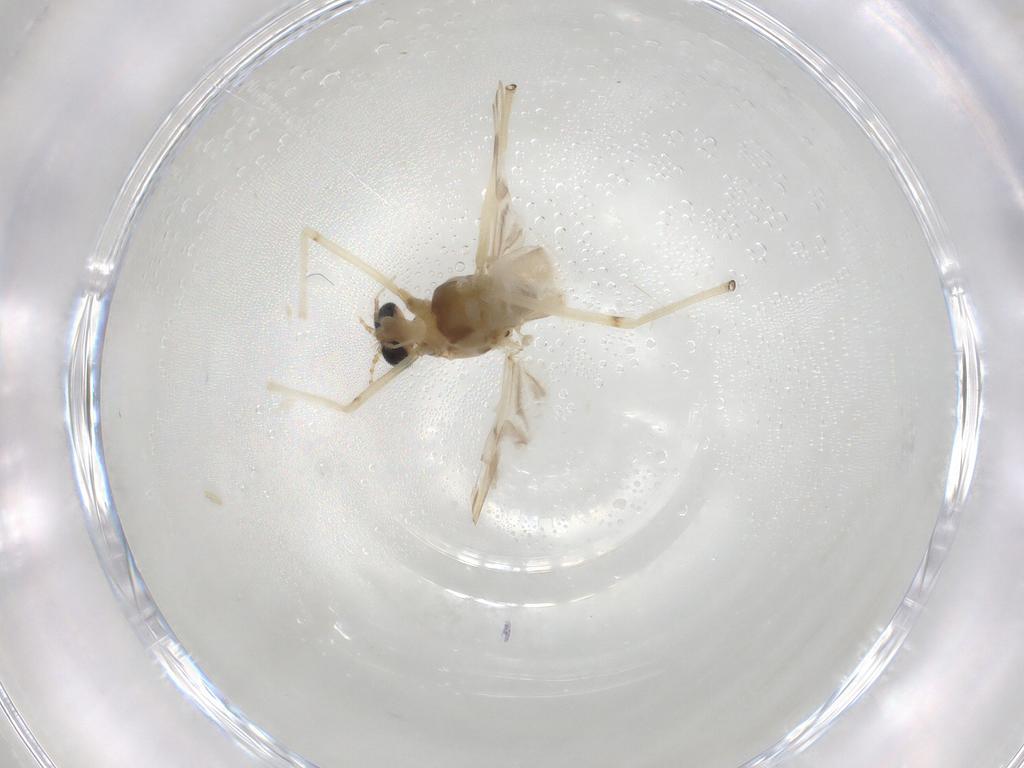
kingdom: Animalia
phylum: Arthropoda
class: Insecta
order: Diptera
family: Chironomidae
